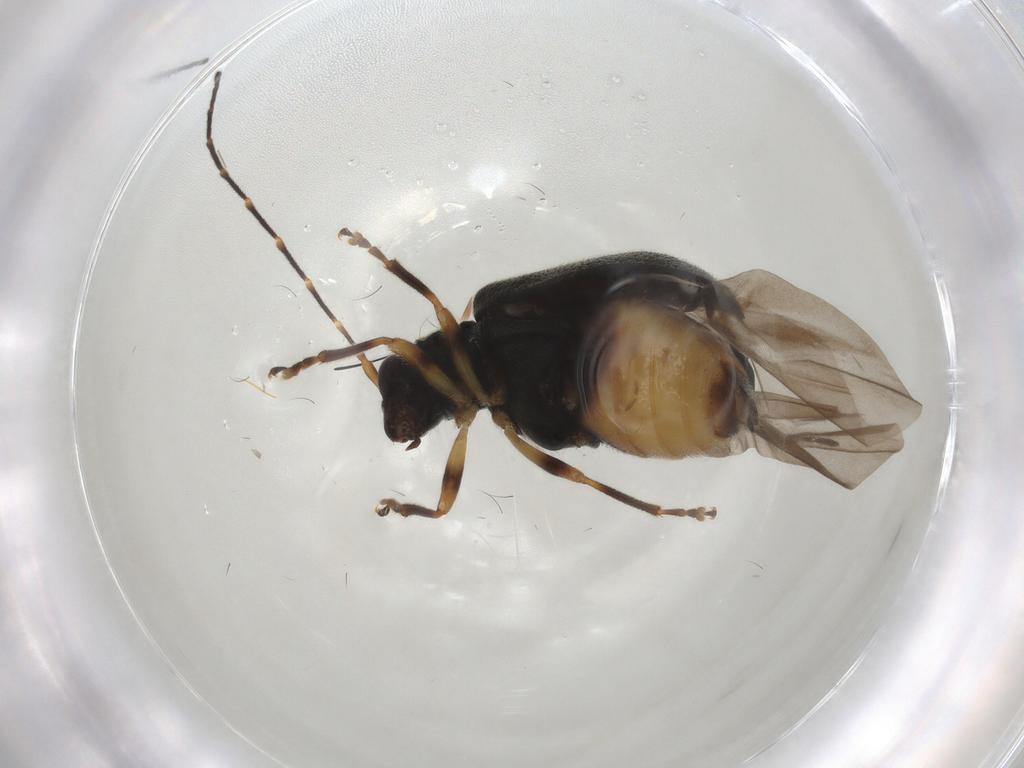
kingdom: Animalia
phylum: Arthropoda
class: Insecta
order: Coleoptera
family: Chrysomelidae
